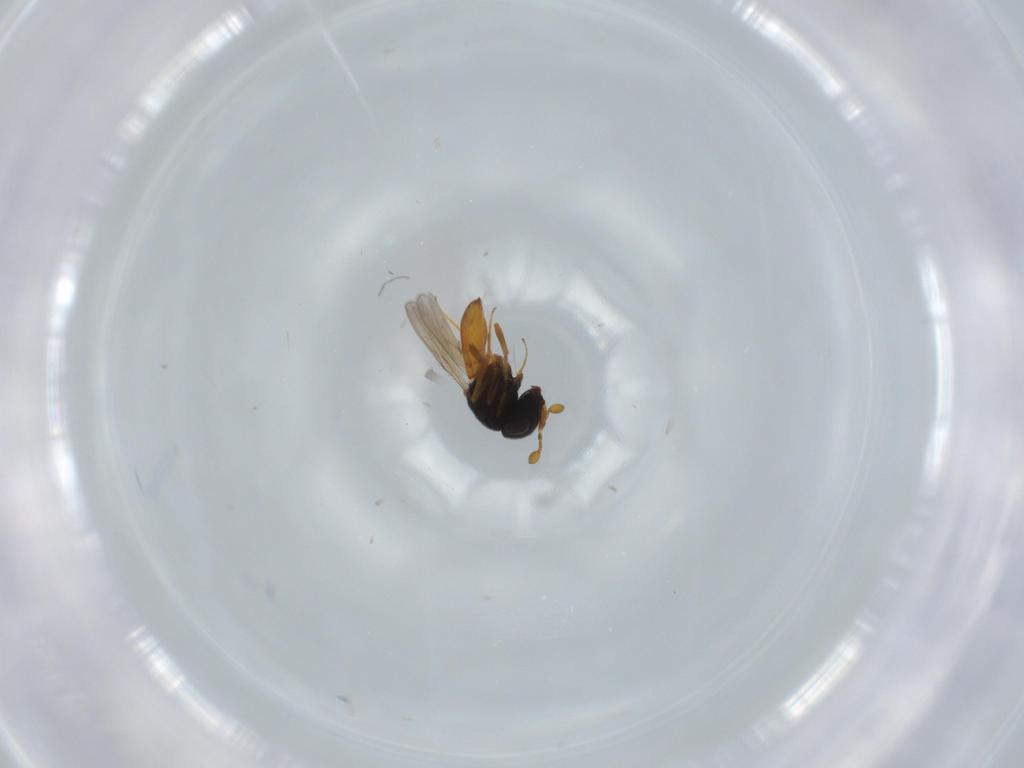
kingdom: Animalia
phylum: Arthropoda
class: Insecta
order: Hymenoptera
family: Scelionidae
